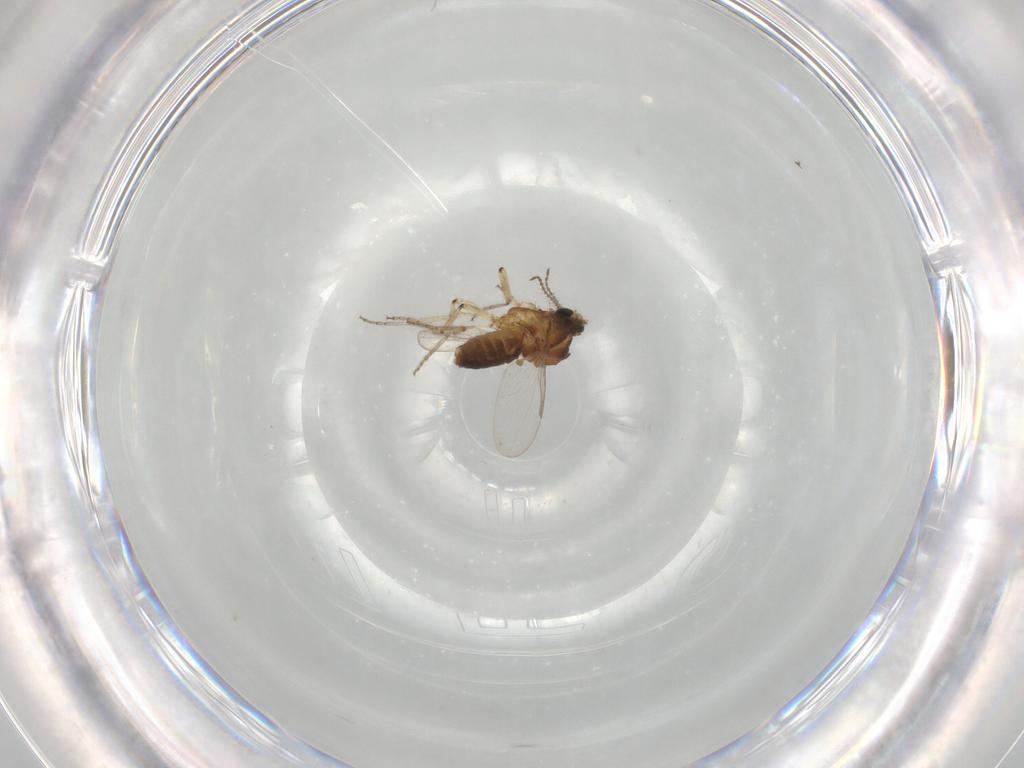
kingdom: Animalia
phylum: Arthropoda
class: Insecta
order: Diptera
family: Ceratopogonidae
